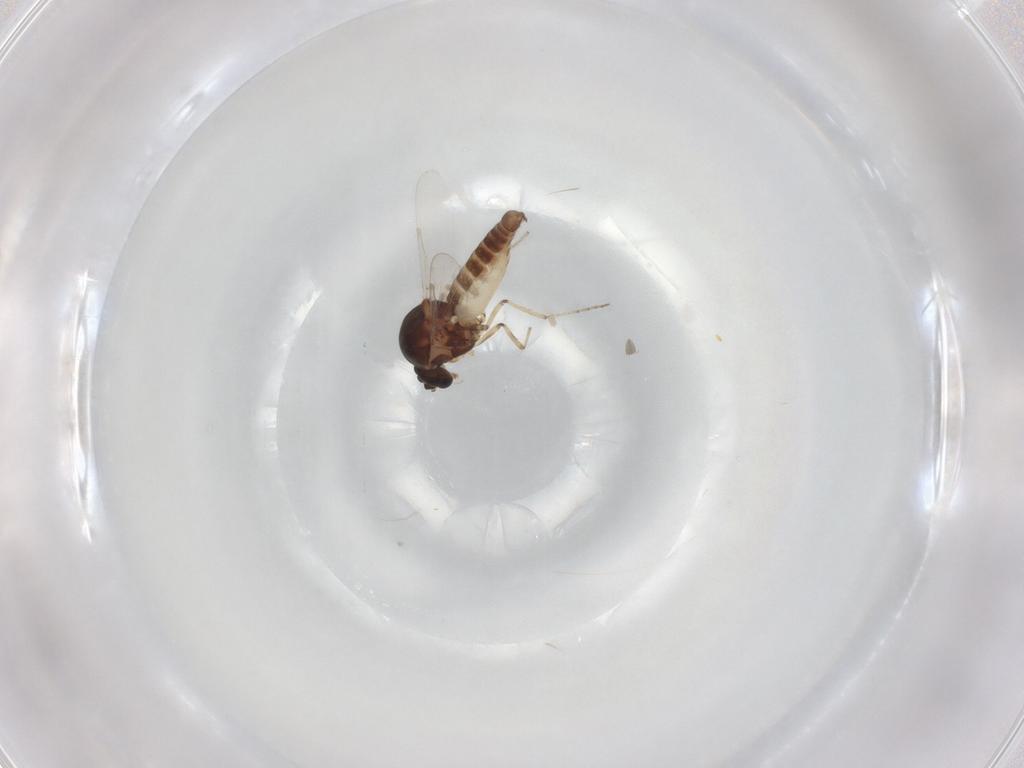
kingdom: Animalia
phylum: Arthropoda
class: Insecta
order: Diptera
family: Ceratopogonidae
